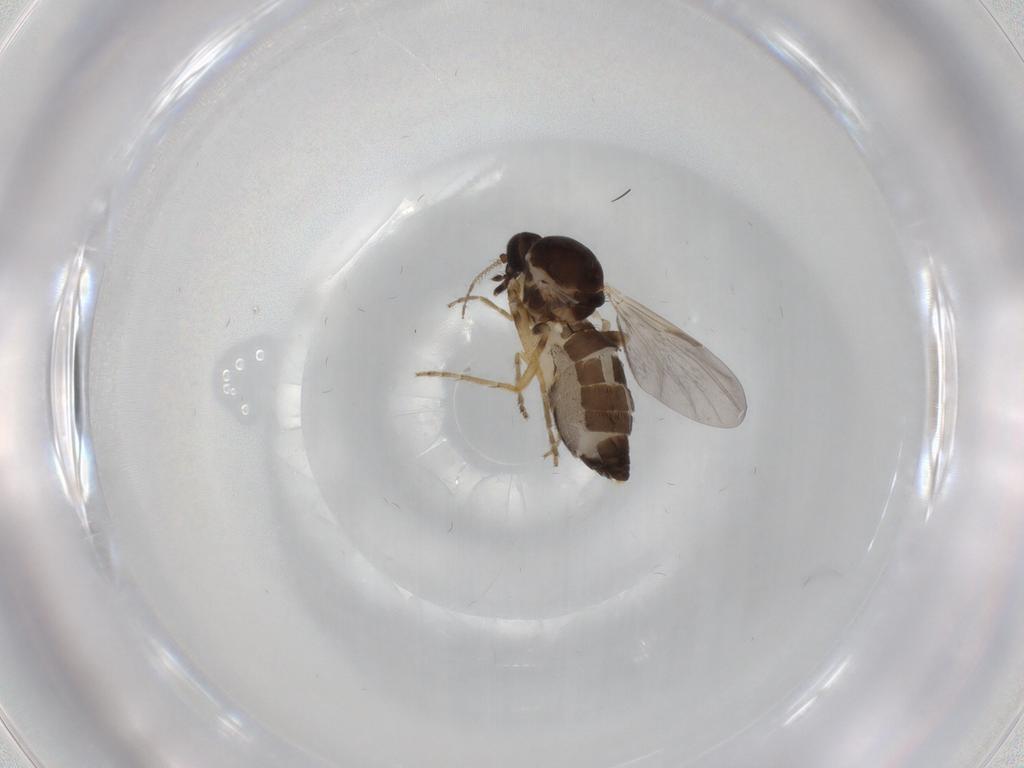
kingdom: Animalia
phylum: Arthropoda
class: Insecta
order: Diptera
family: Ceratopogonidae
